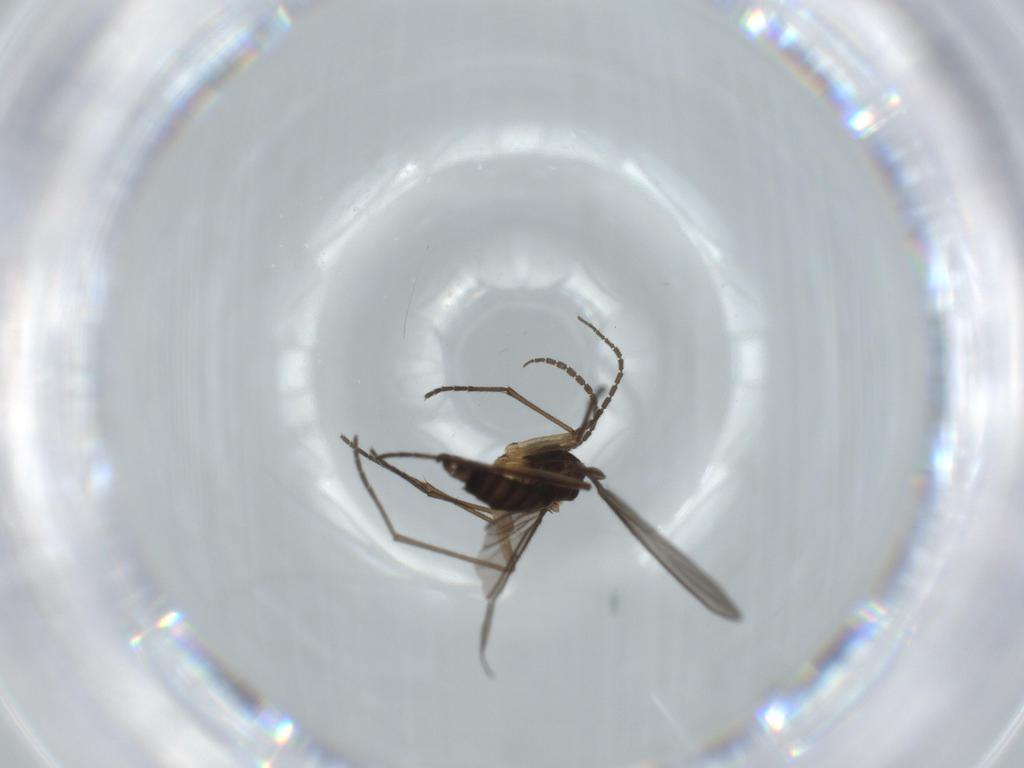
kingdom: Animalia
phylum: Arthropoda
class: Insecta
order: Diptera
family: Sciaridae
